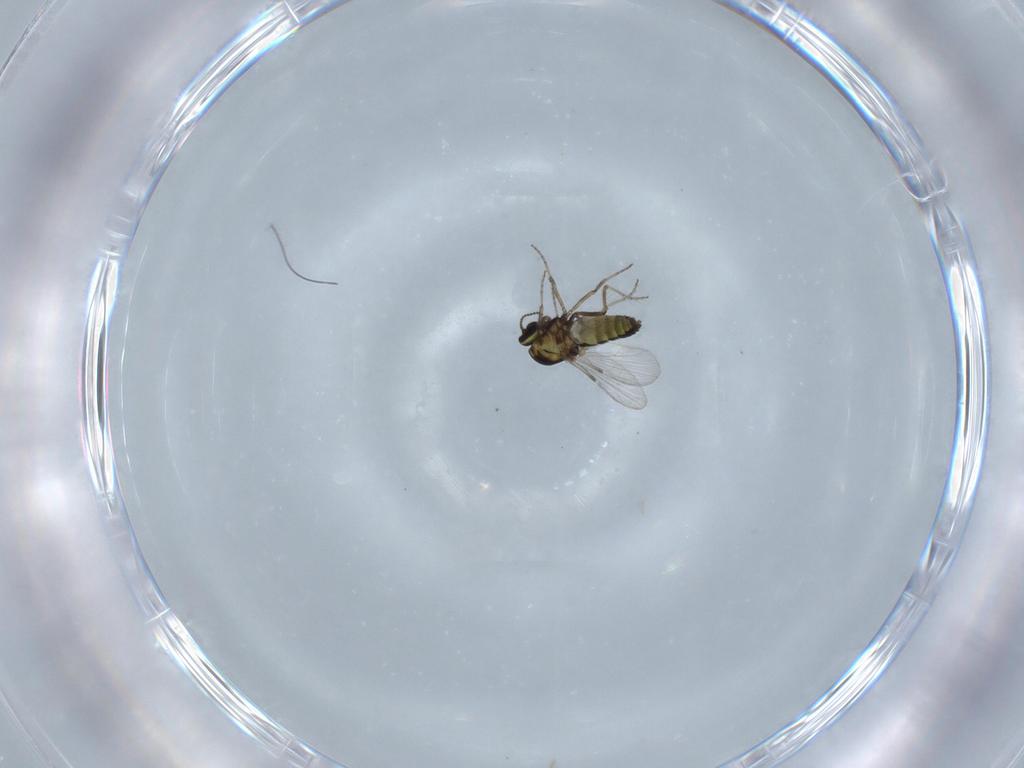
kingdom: Animalia
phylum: Arthropoda
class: Insecta
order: Diptera
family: Ceratopogonidae
